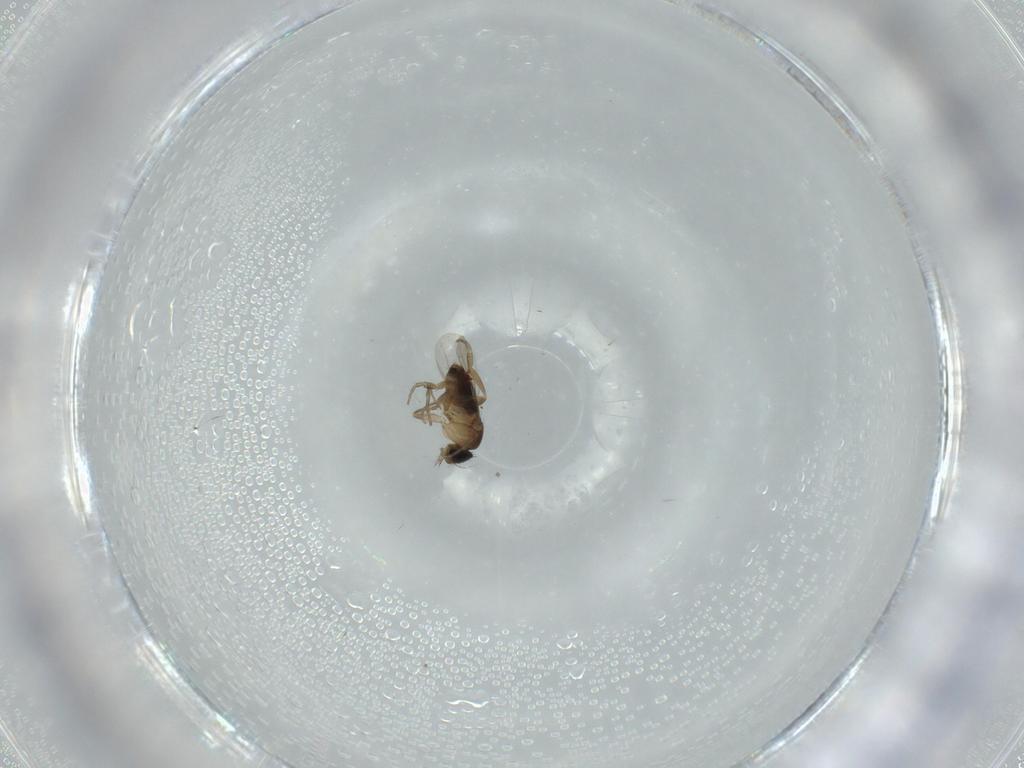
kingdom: Animalia
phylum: Arthropoda
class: Insecta
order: Diptera
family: Phoridae
